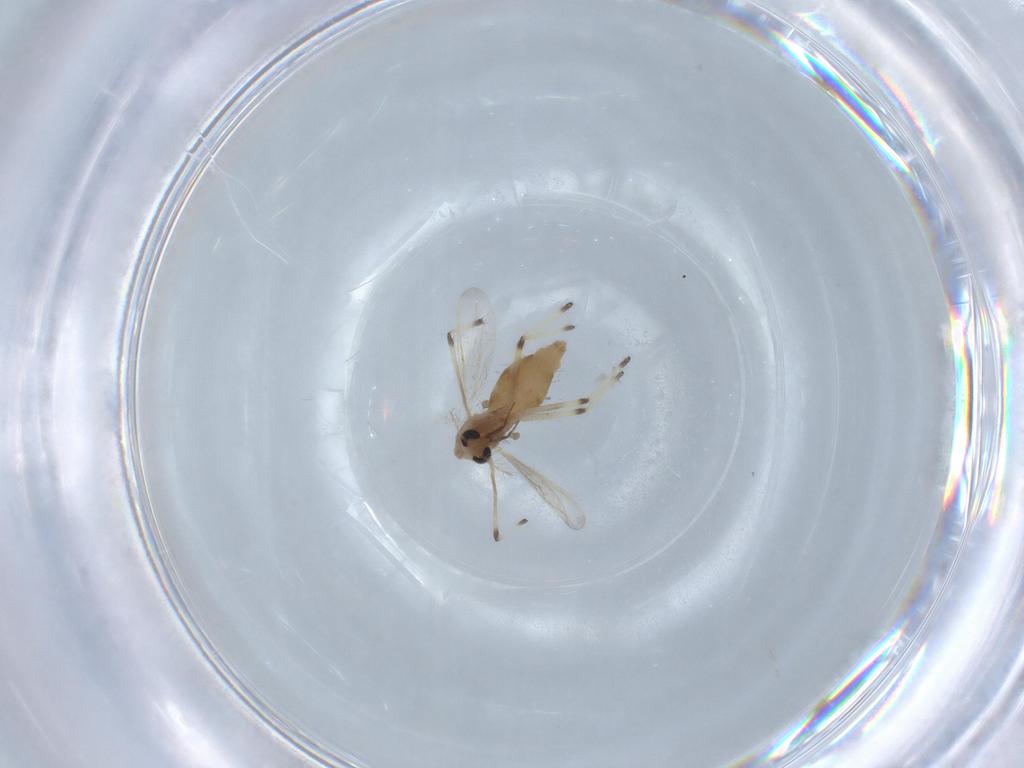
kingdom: Animalia
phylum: Arthropoda
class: Insecta
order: Diptera
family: Chironomidae
